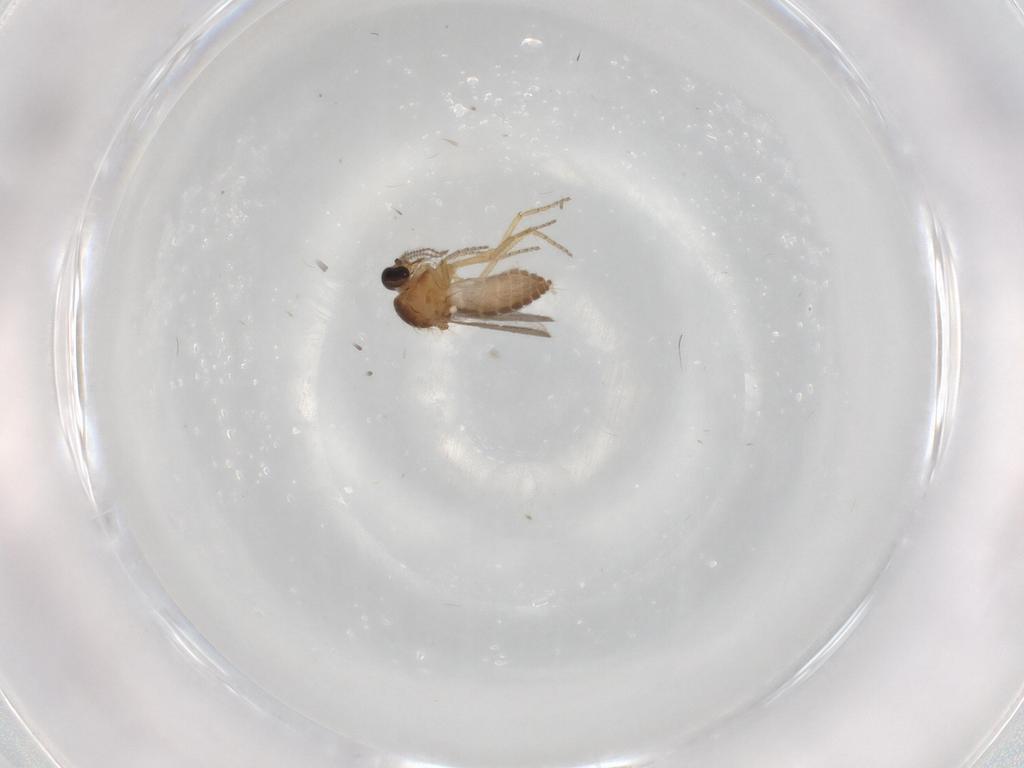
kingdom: Animalia
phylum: Arthropoda
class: Insecta
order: Diptera
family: Ceratopogonidae
